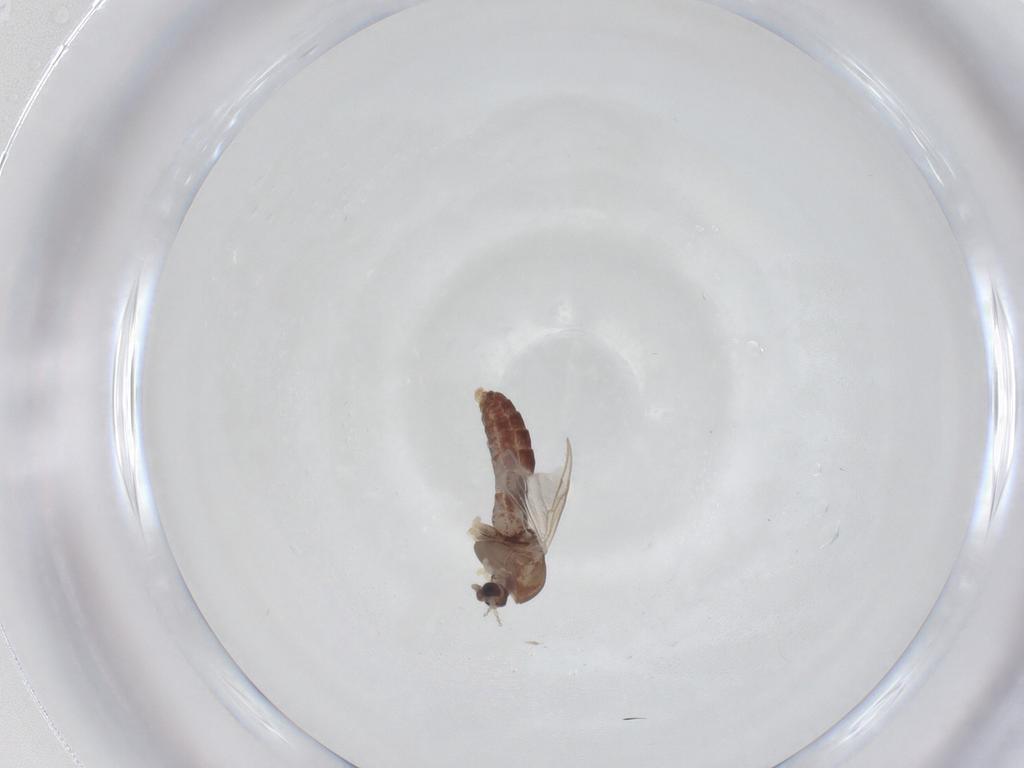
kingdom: Animalia
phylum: Arthropoda
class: Insecta
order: Diptera
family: Chironomidae
